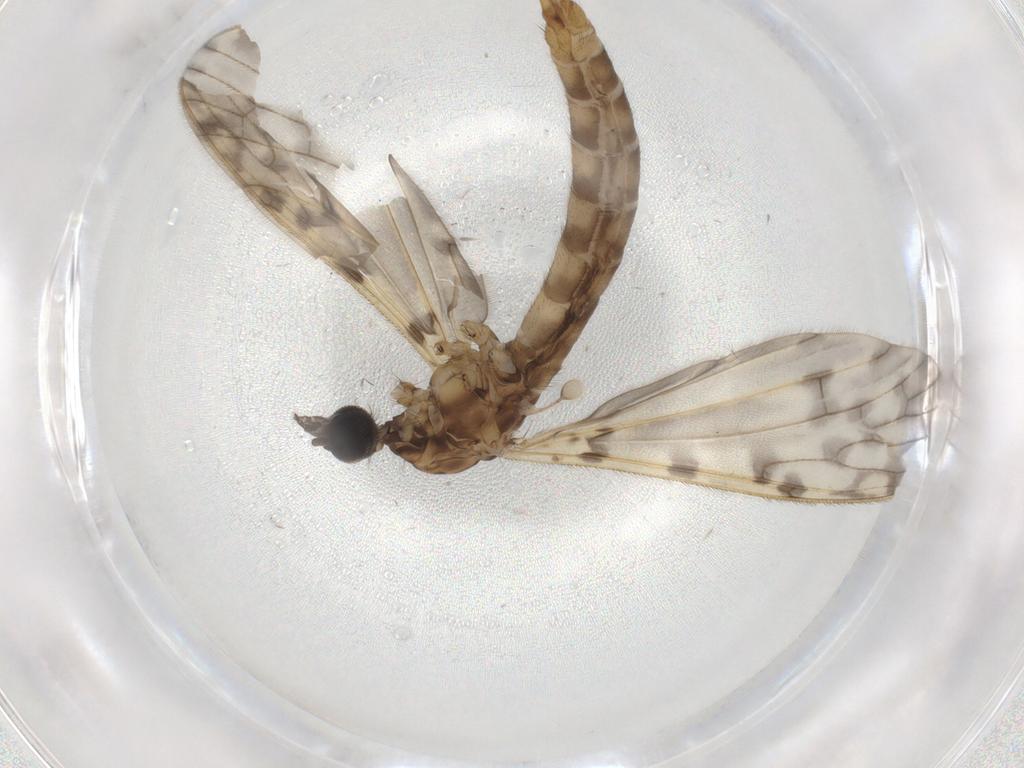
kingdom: Animalia
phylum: Arthropoda
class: Insecta
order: Diptera
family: Limoniidae
